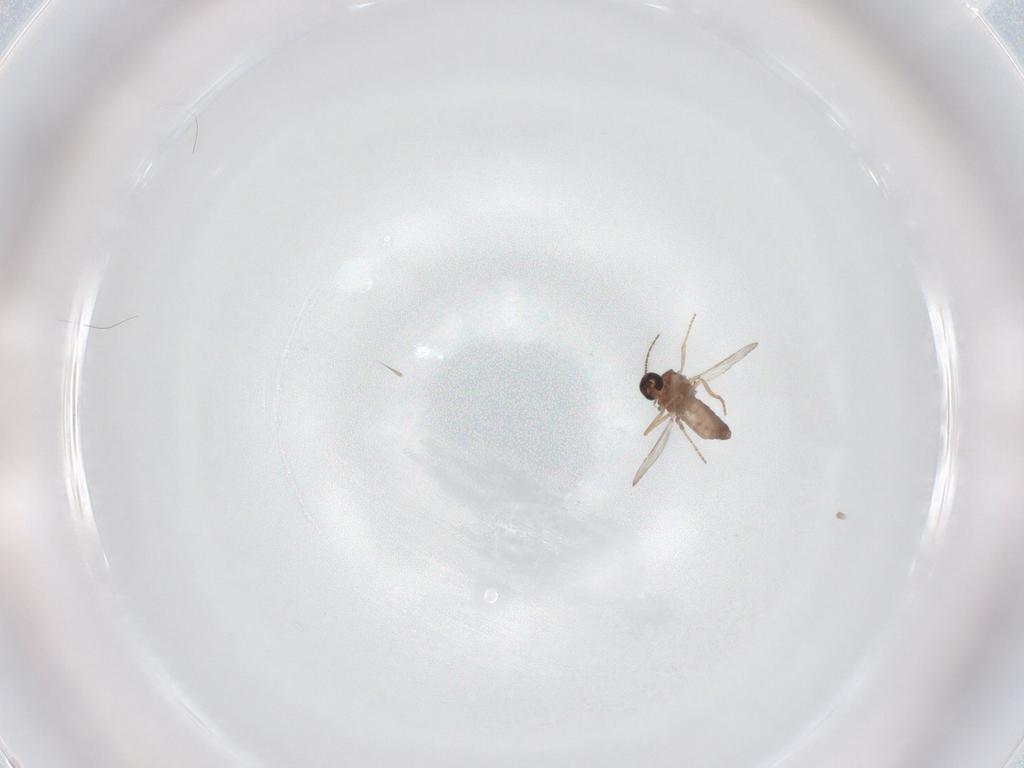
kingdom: Animalia
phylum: Arthropoda
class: Insecta
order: Diptera
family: Ceratopogonidae
